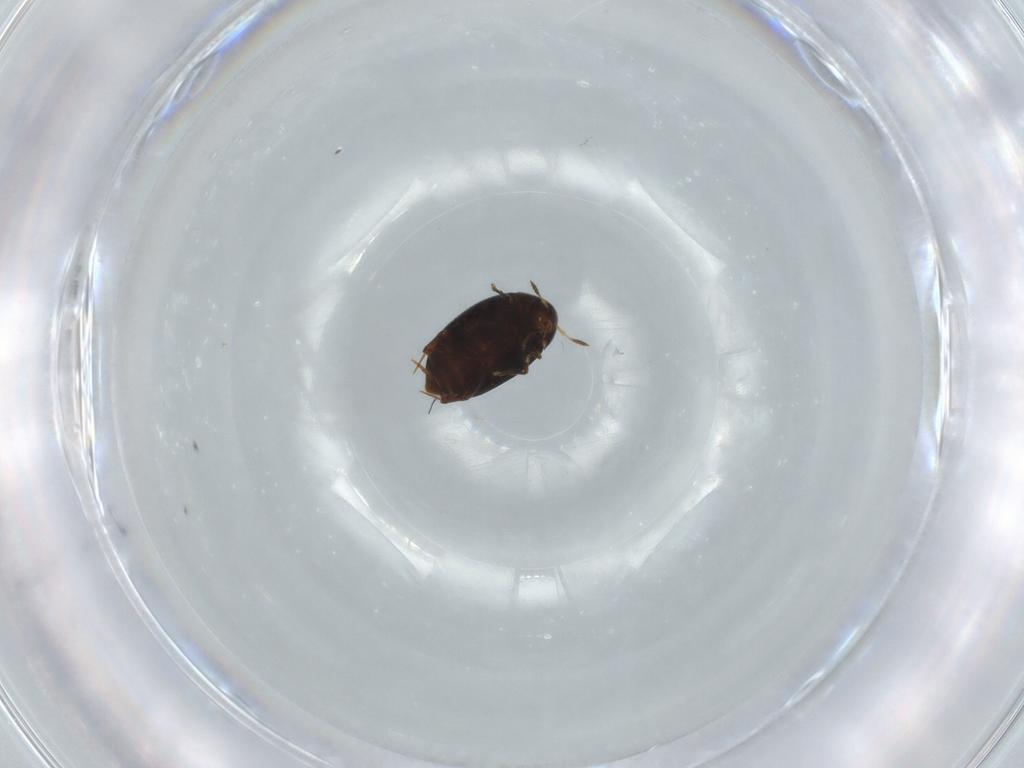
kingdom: Animalia
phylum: Arthropoda
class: Insecta
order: Coleoptera
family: Melandryidae
